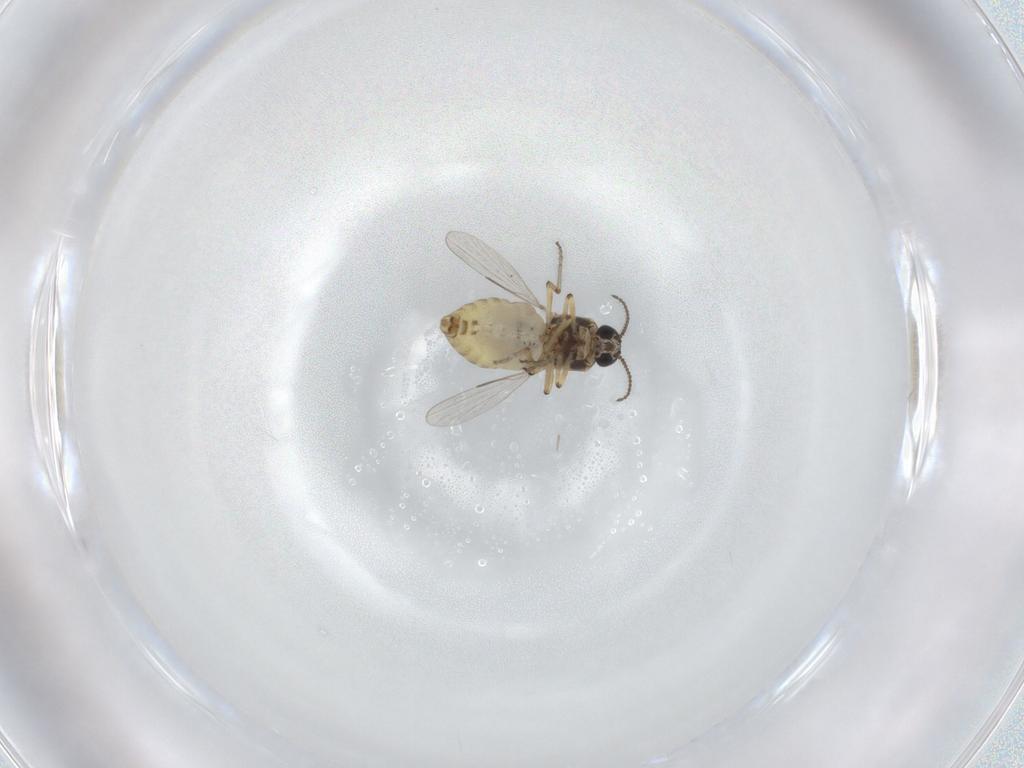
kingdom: Animalia
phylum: Arthropoda
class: Insecta
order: Diptera
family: Ceratopogonidae
